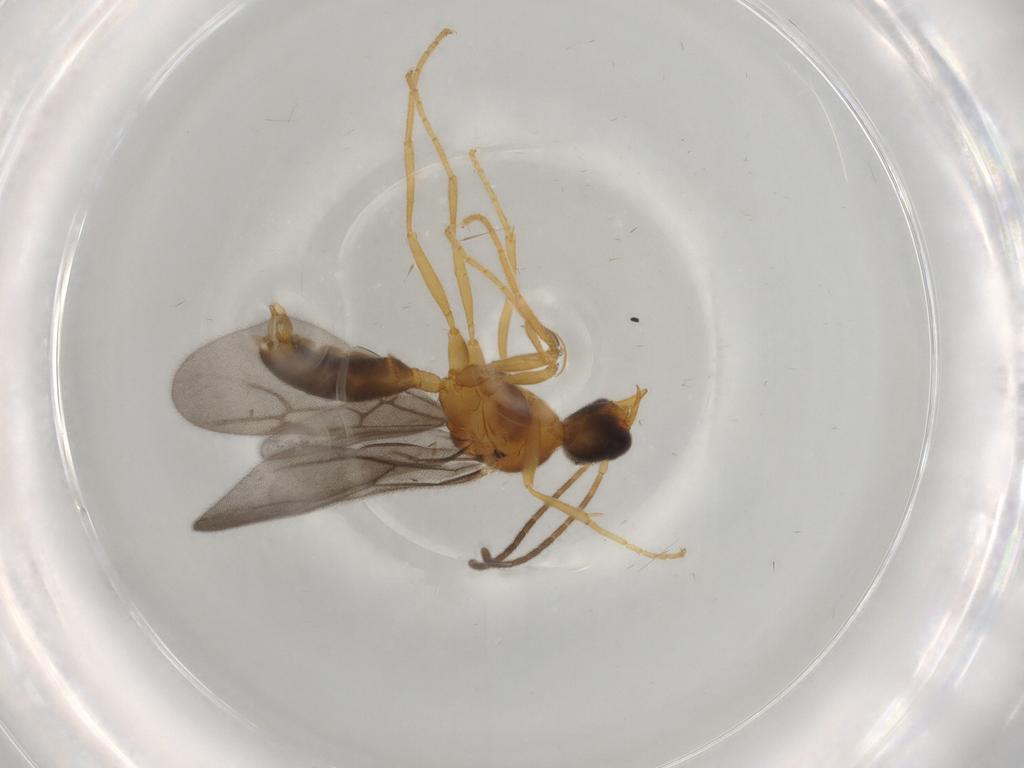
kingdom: Animalia
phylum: Arthropoda
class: Insecta
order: Hymenoptera
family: Formicidae
